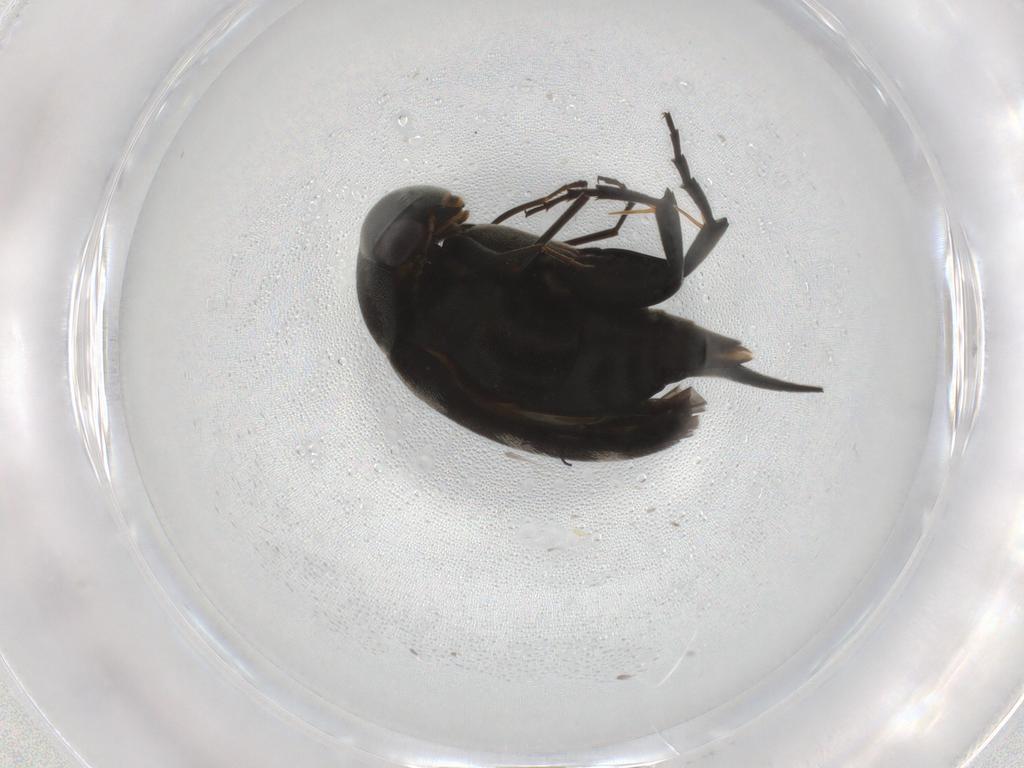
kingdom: Animalia
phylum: Arthropoda
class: Insecta
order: Coleoptera
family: Curculionidae
